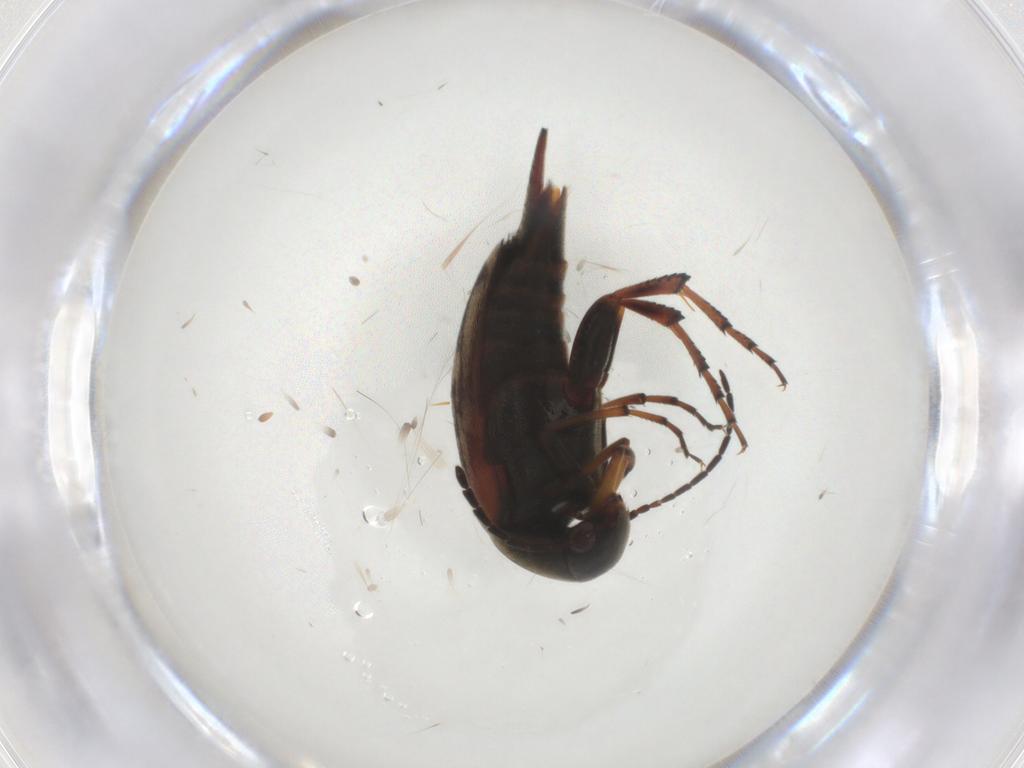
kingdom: Animalia
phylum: Arthropoda
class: Insecta
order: Coleoptera
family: Mordellidae
